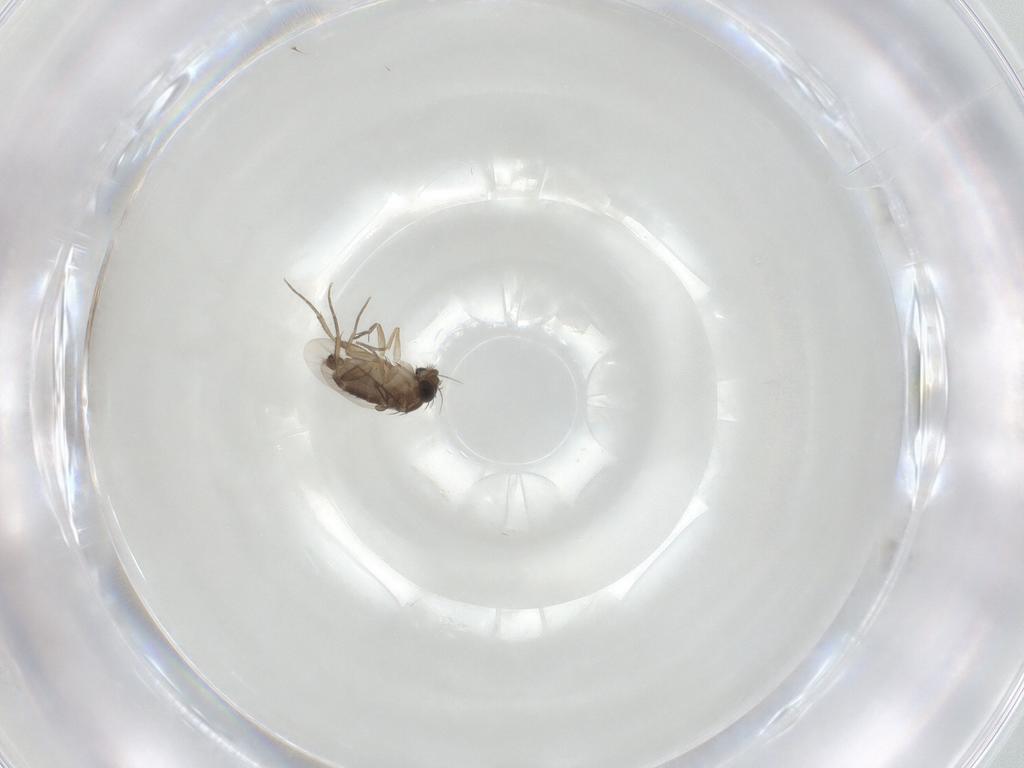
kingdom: Animalia
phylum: Arthropoda
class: Insecta
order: Diptera
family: Phoridae
